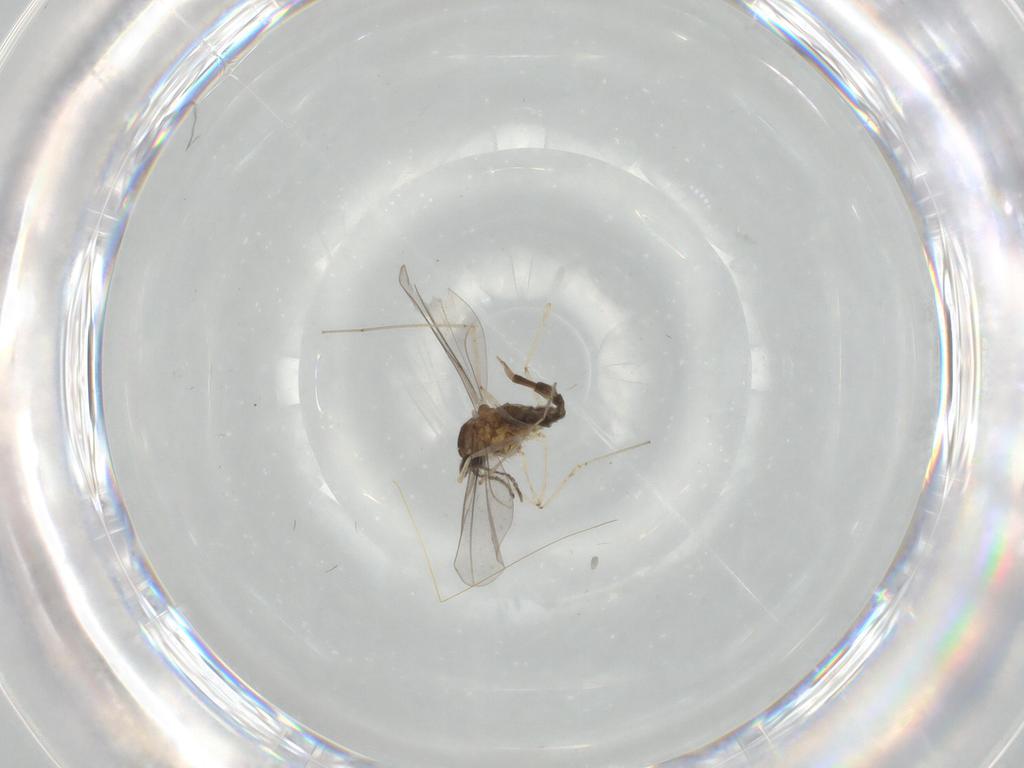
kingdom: Animalia
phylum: Arthropoda
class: Insecta
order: Diptera
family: Cecidomyiidae
